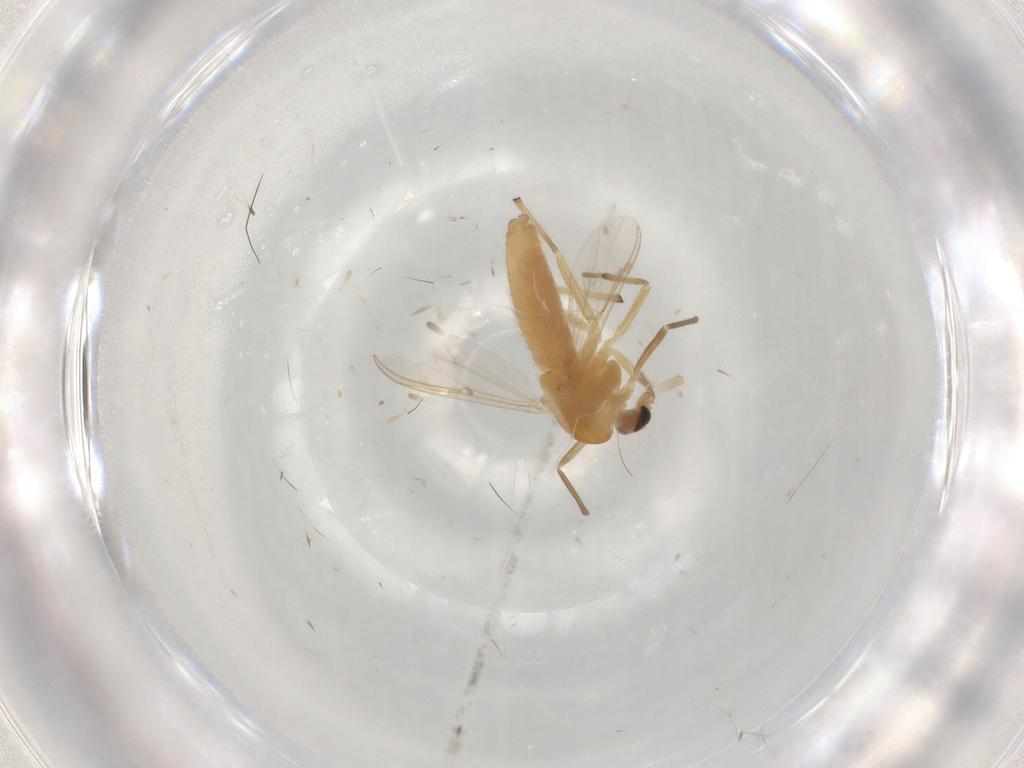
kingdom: Animalia
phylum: Arthropoda
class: Insecta
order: Diptera
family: Chironomidae
